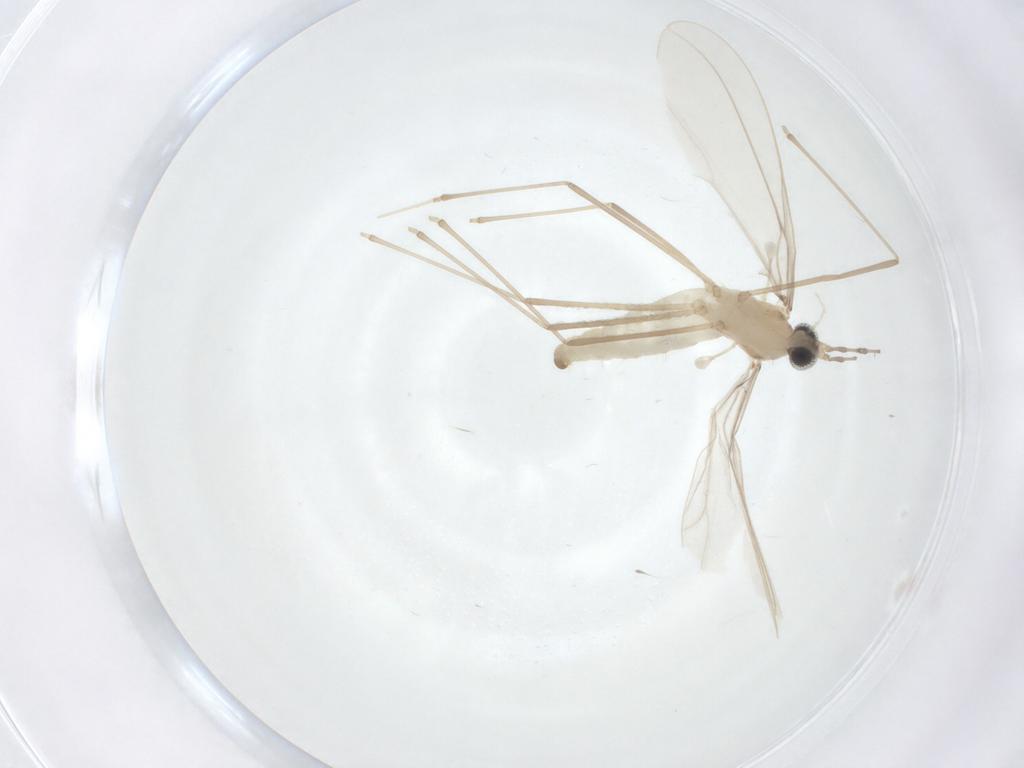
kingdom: Animalia
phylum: Arthropoda
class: Insecta
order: Diptera
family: Cecidomyiidae
